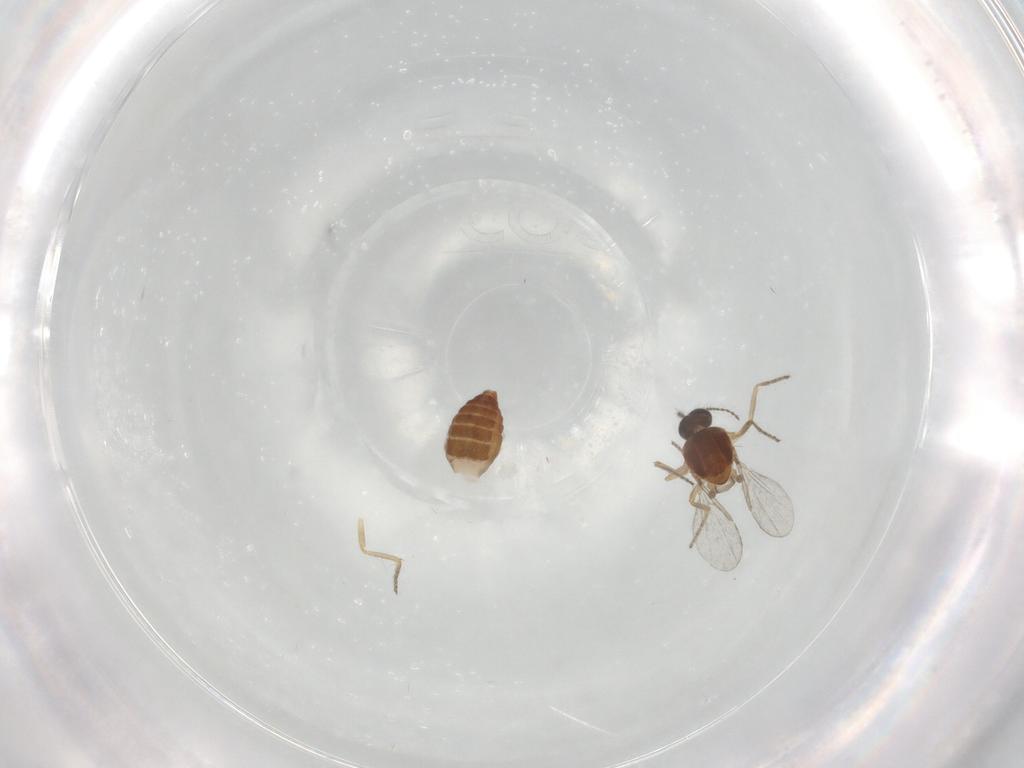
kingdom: Animalia
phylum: Arthropoda
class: Insecta
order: Diptera
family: Ceratopogonidae
